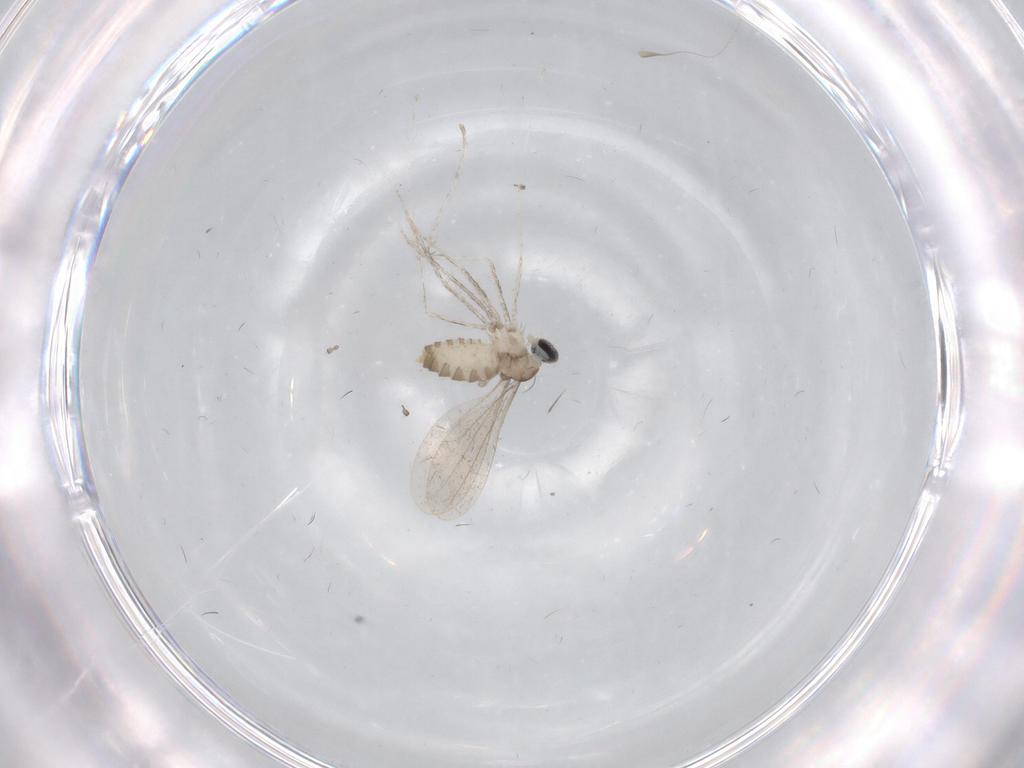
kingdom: Animalia
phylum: Arthropoda
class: Insecta
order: Diptera
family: Cecidomyiidae
